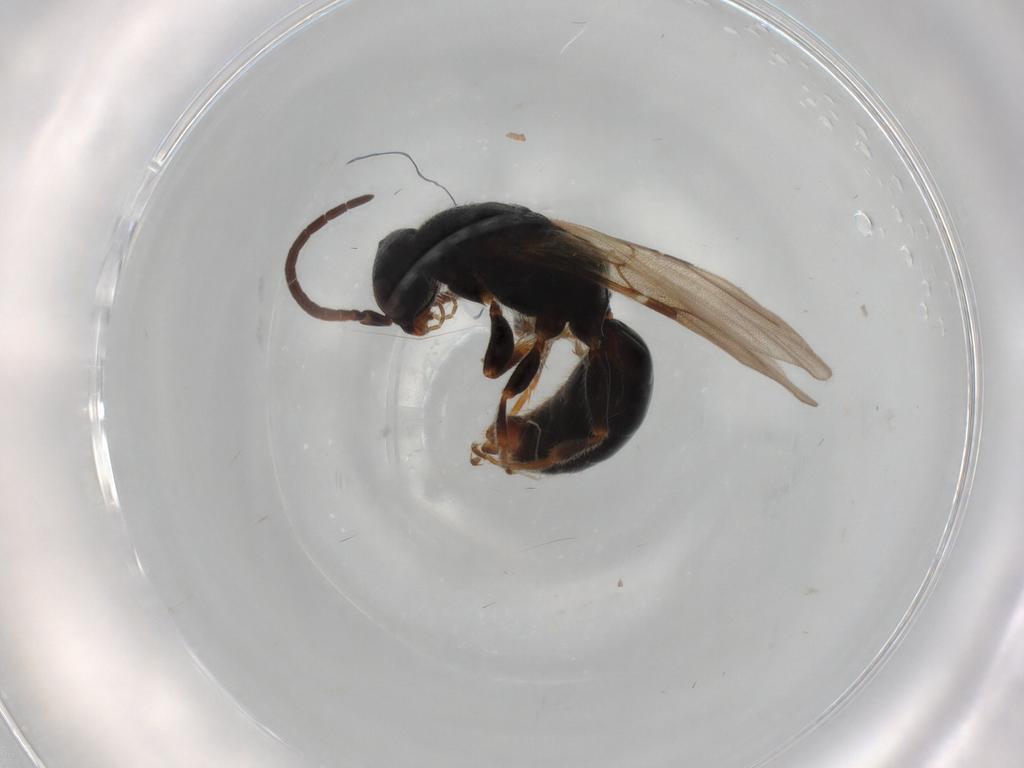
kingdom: Animalia
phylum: Arthropoda
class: Insecta
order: Hymenoptera
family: Bethylidae
